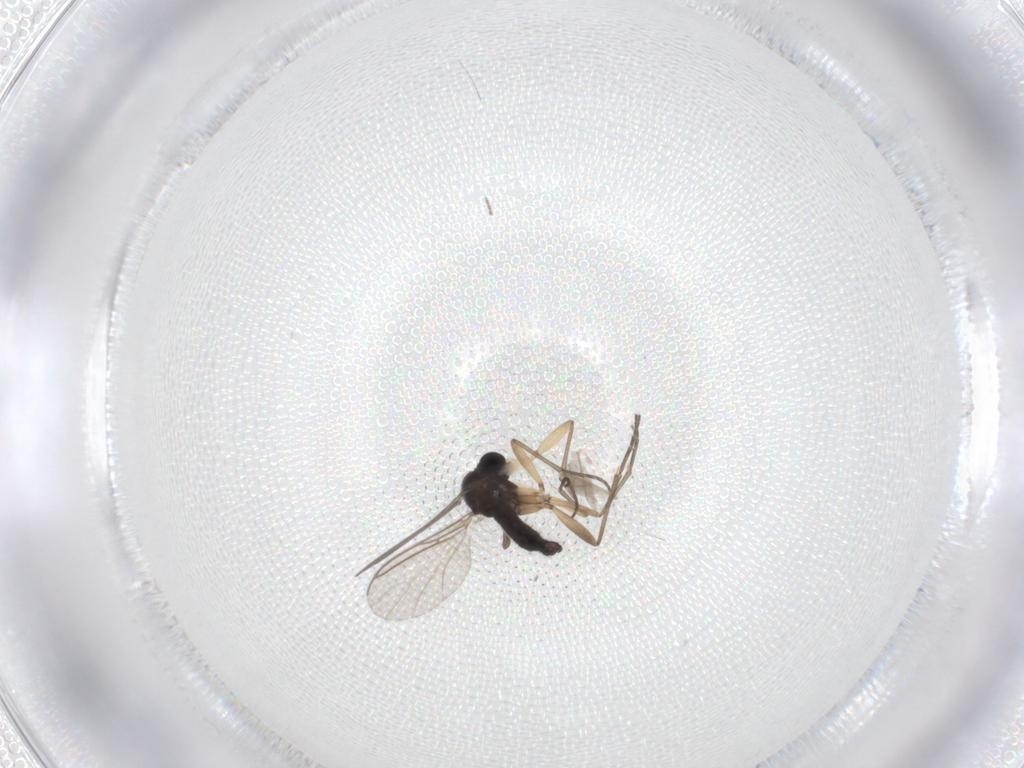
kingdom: Animalia
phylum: Arthropoda
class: Insecta
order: Diptera
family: Sciaridae
